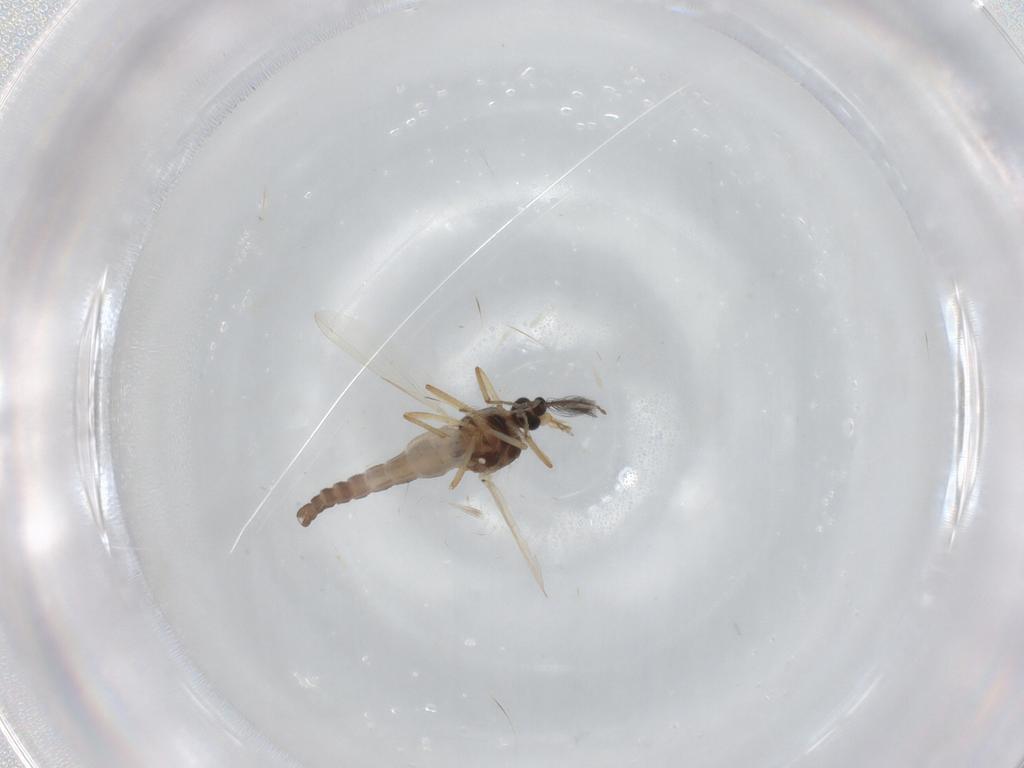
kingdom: Animalia
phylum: Arthropoda
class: Insecta
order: Diptera
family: Ceratopogonidae
